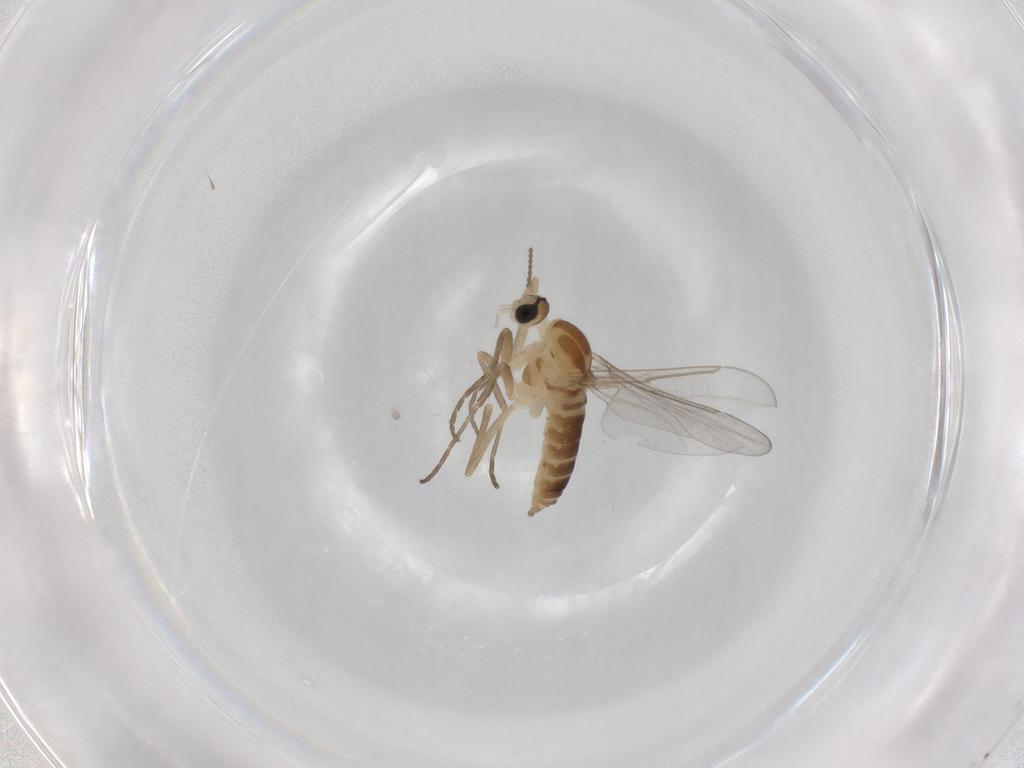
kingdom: Animalia
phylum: Arthropoda
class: Insecta
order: Diptera
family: Cecidomyiidae
